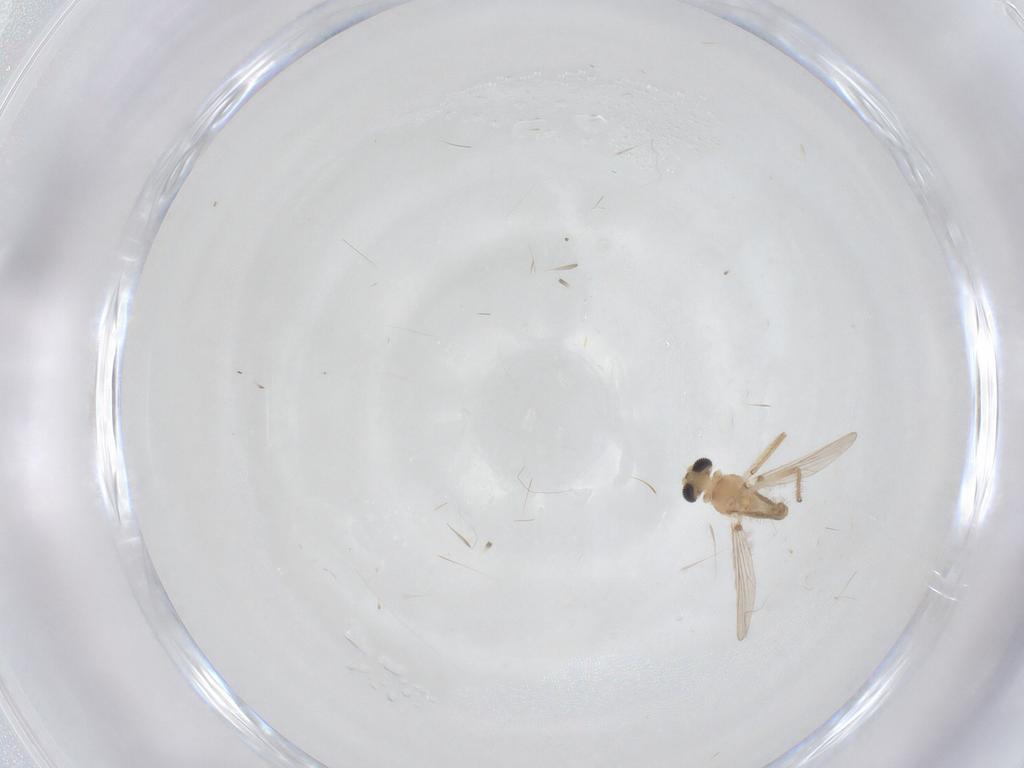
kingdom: Animalia
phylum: Arthropoda
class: Insecta
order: Diptera
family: Chironomidae
